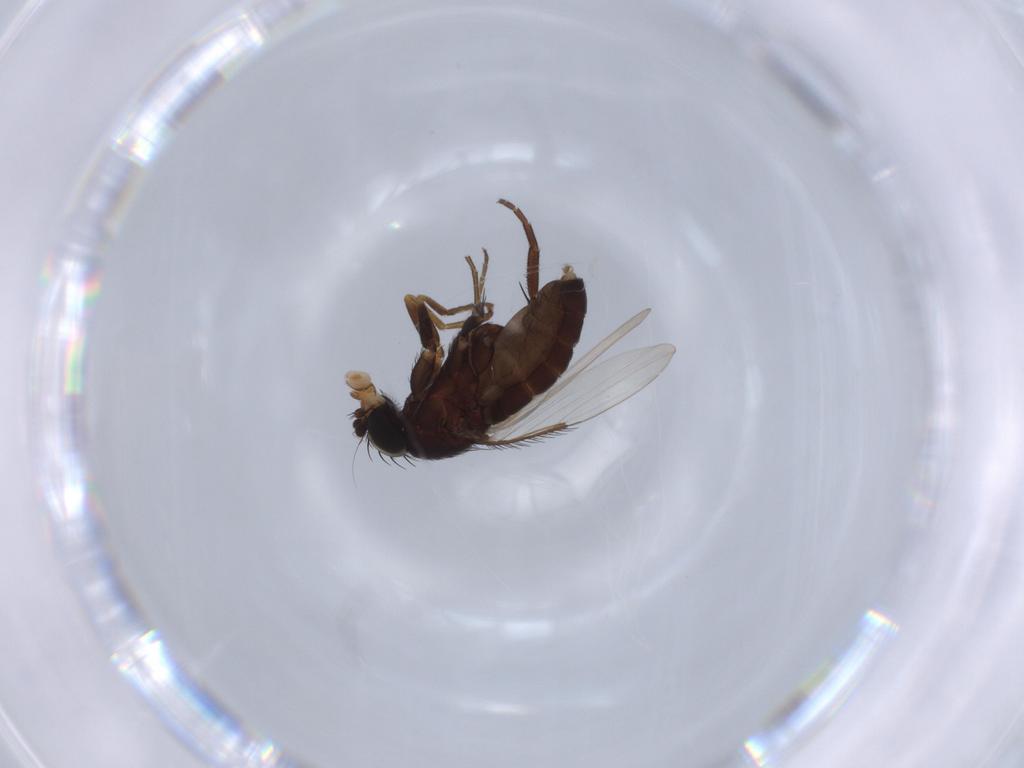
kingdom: Animalia
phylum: Arthropoda
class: Insecta
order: Diptera
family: Phoridae
